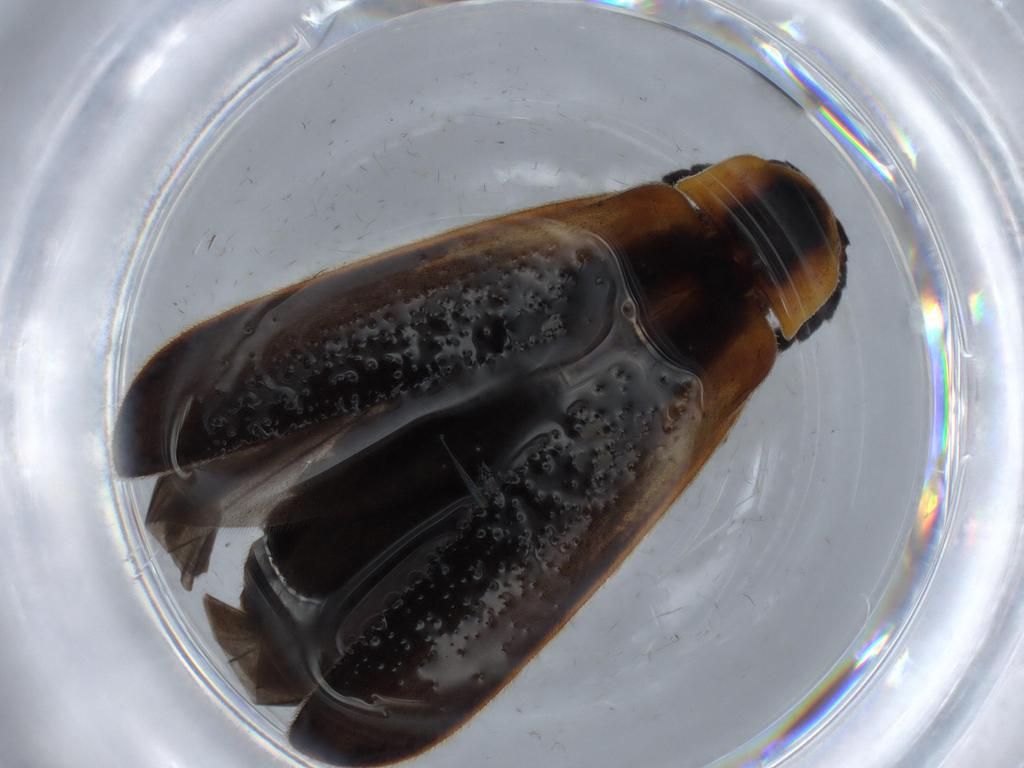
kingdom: Animalia
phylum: Arthropoda
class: Insecta
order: Coleoptera
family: Lycidae
